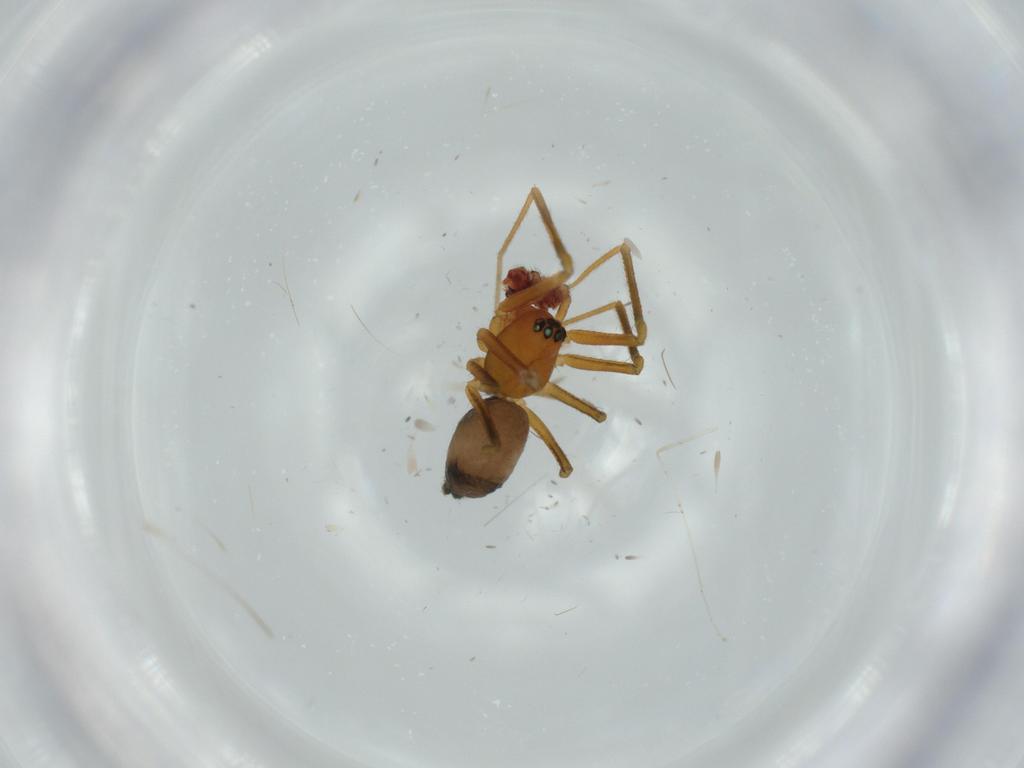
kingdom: Animalia
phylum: Arthropoda
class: Arachnida
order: Araneae
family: Linyphiidae
